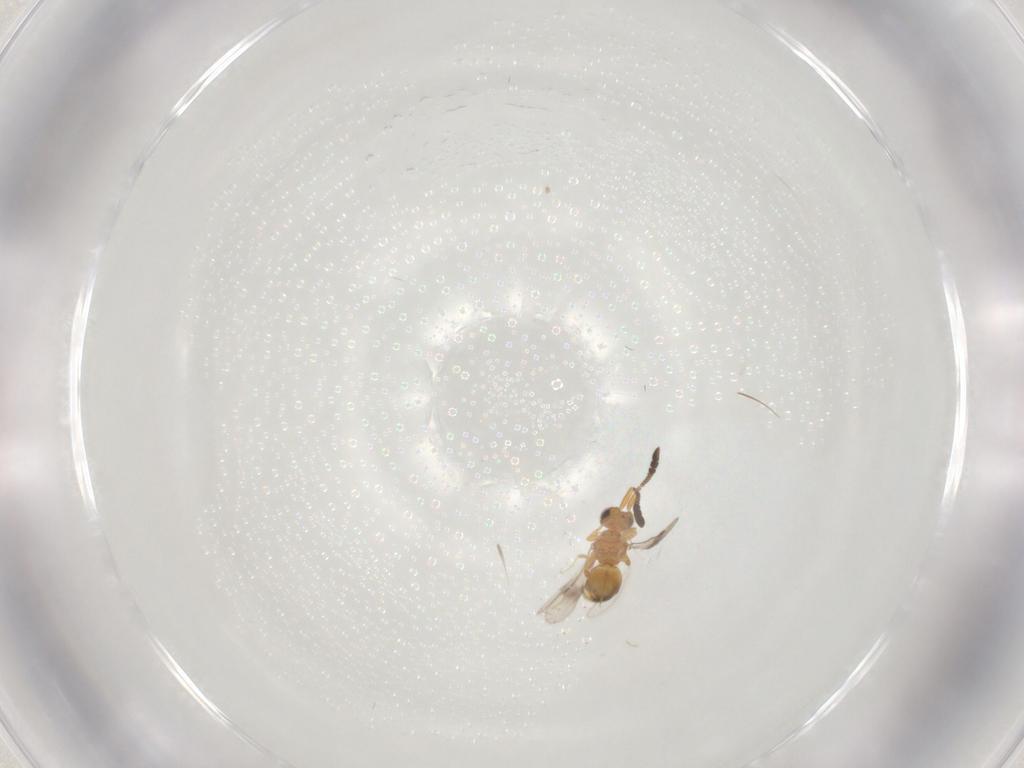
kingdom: Animalia
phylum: Arthropoda
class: Insecta
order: Hymenoptera
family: Ceraphronidae
